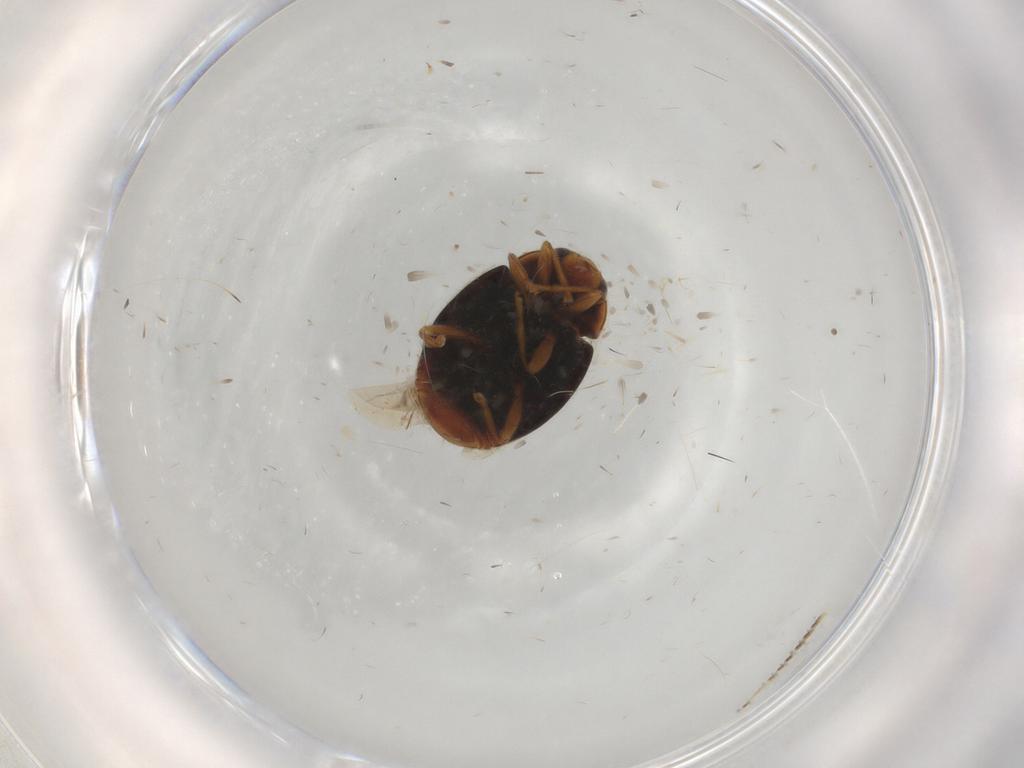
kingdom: Animalia
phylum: Arthropoda
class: Insecta
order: Coleoptera
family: Coccinellidae
